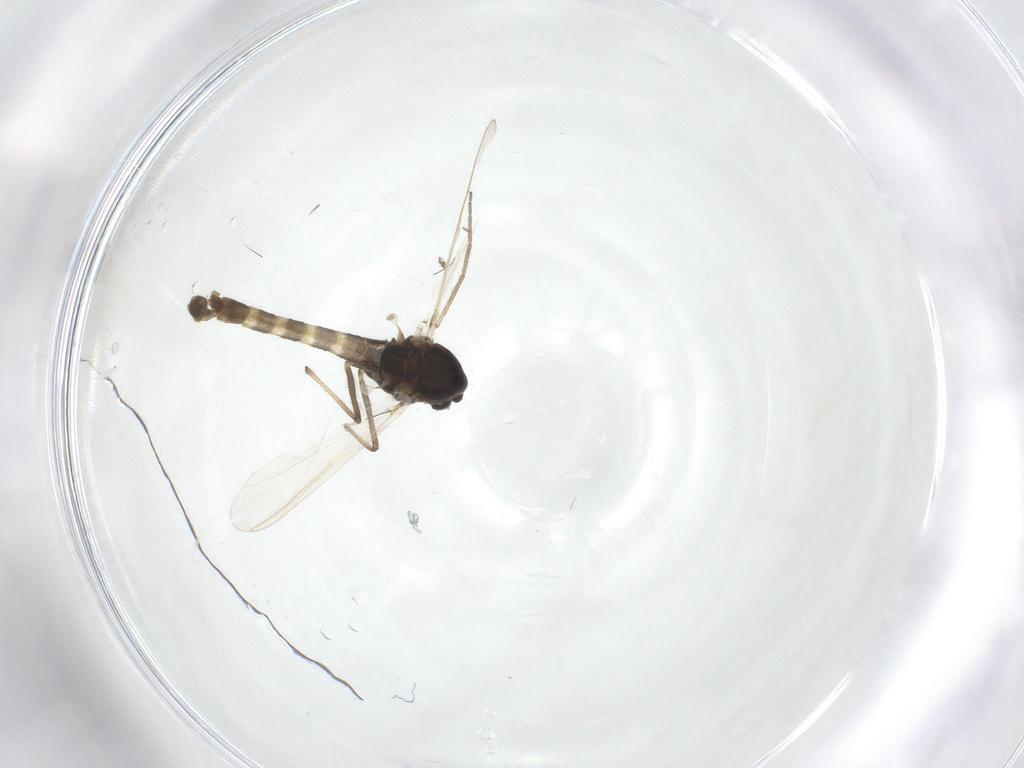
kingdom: Animalia
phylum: Arthropoda
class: Insecta
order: Diptera
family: Chironomidae
